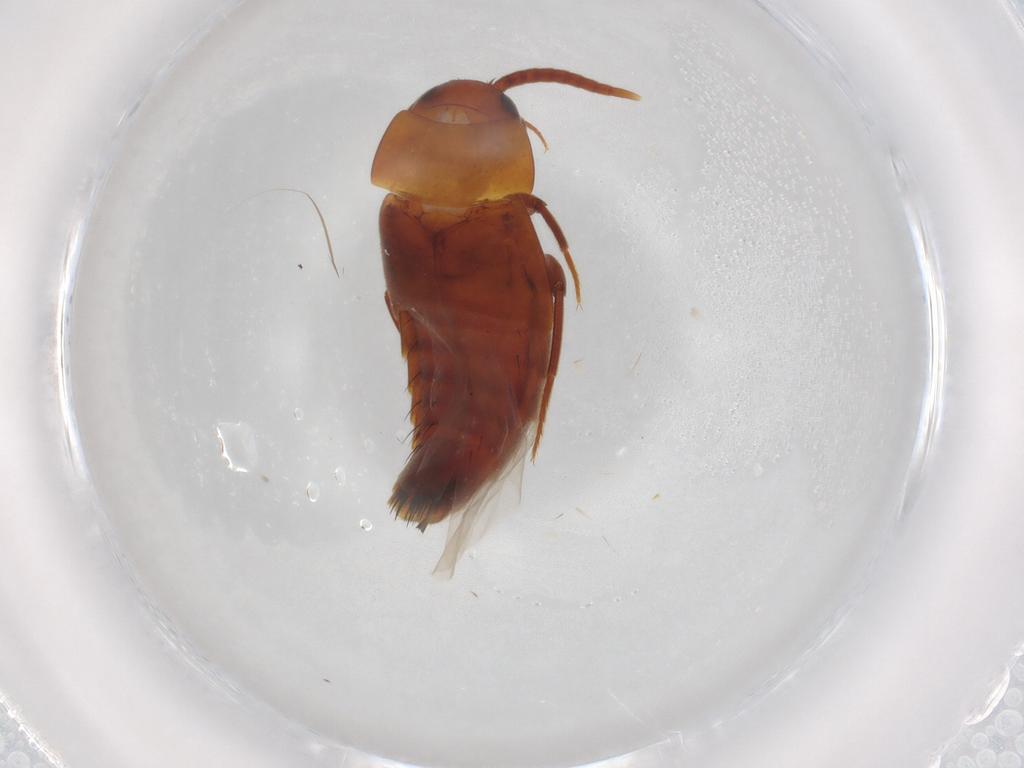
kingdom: Animalia
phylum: Arthropoda
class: Insecta
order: Coleoptera
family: Staphylinidae
